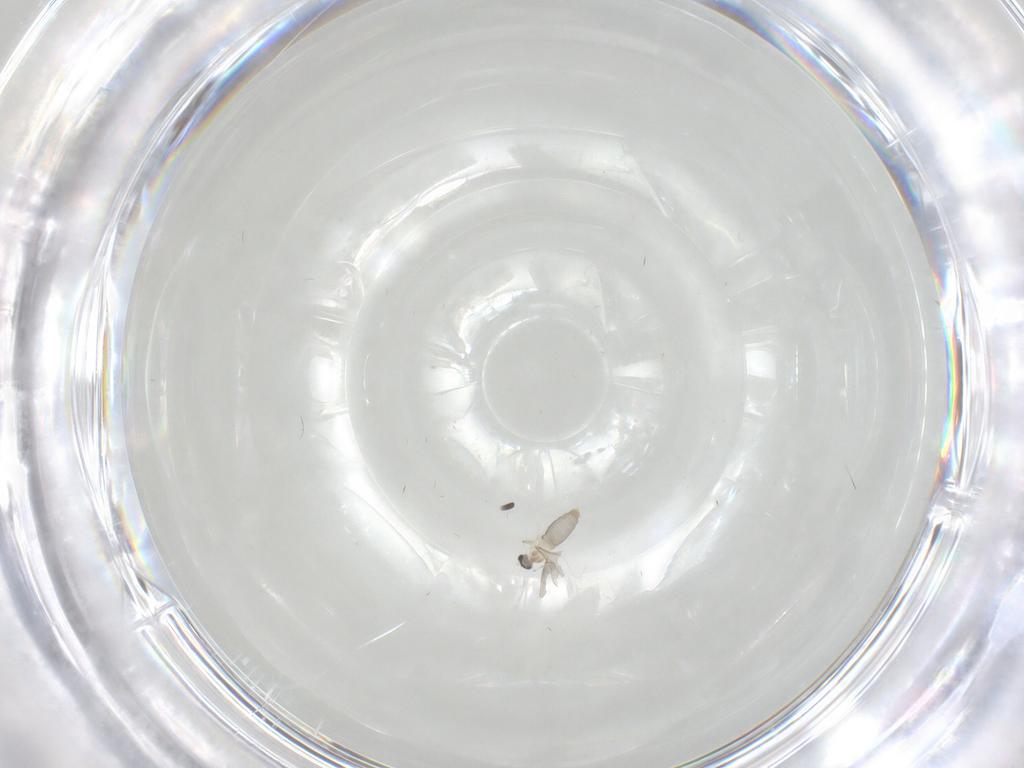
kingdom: Animalia
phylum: Arthropoda
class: Insecta
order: Diptera
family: Cecidomyiidae
